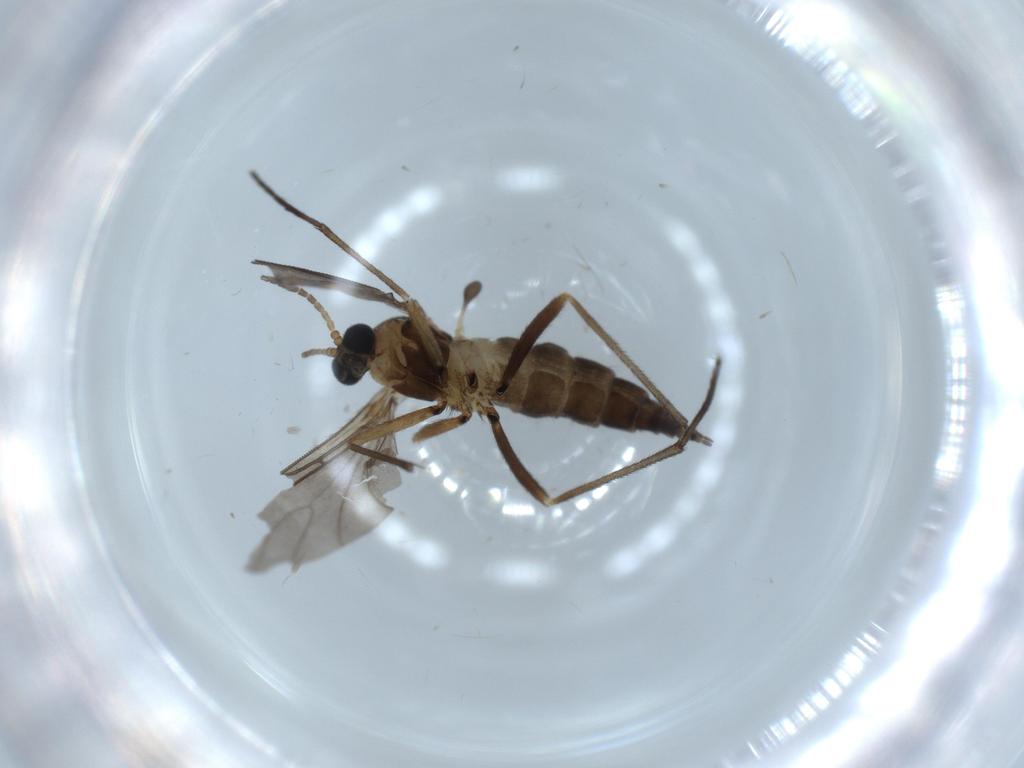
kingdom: Animalia
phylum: Arthropoda
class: Insecta
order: Diptera
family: Sciaridae
